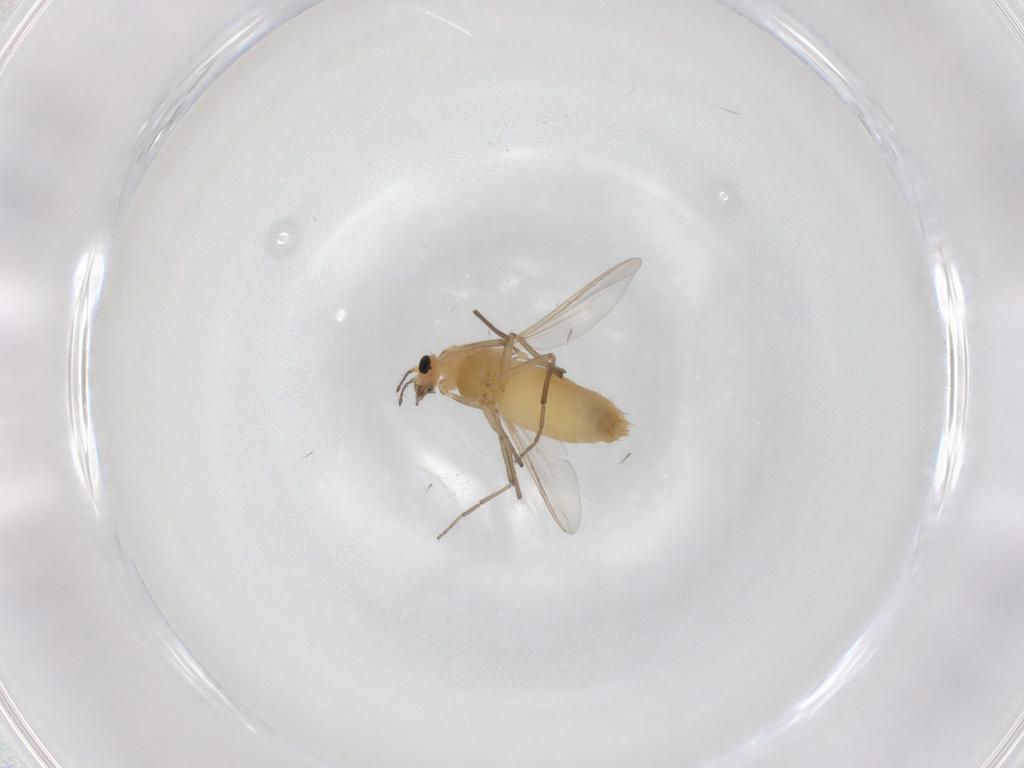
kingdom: Animalia
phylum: Arthropoda
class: Insecta
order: Diptera
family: Chironomidae
